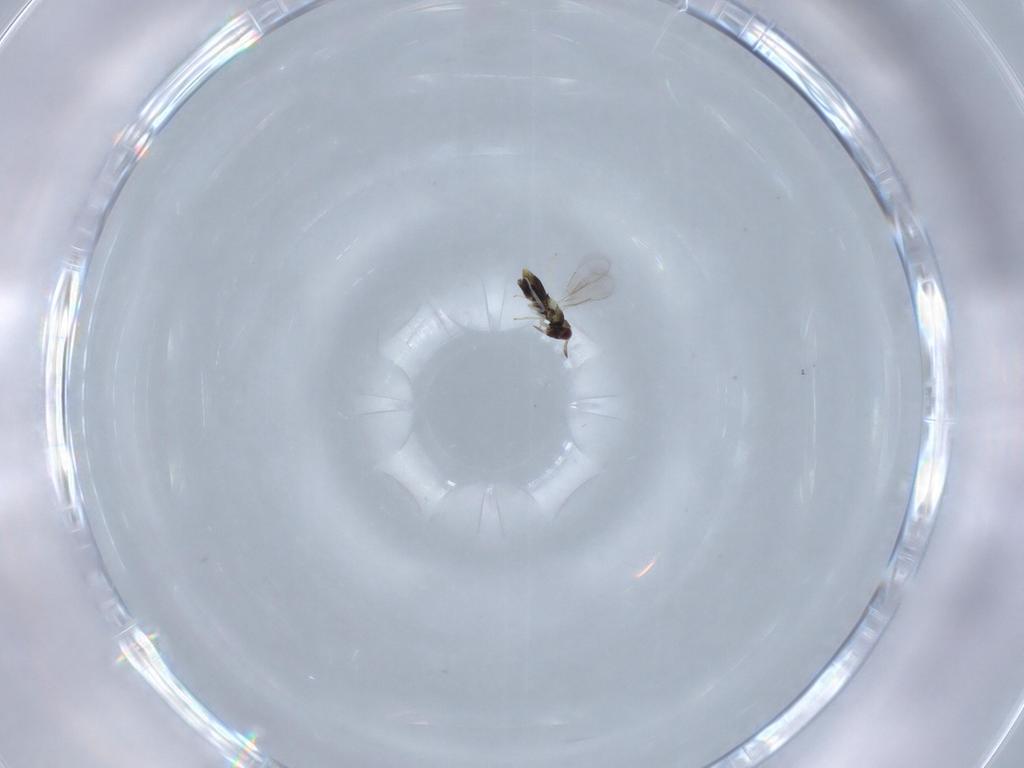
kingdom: Animalia
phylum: Arthropoda
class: Insecta
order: Hymenoptera
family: Aphelinidae
